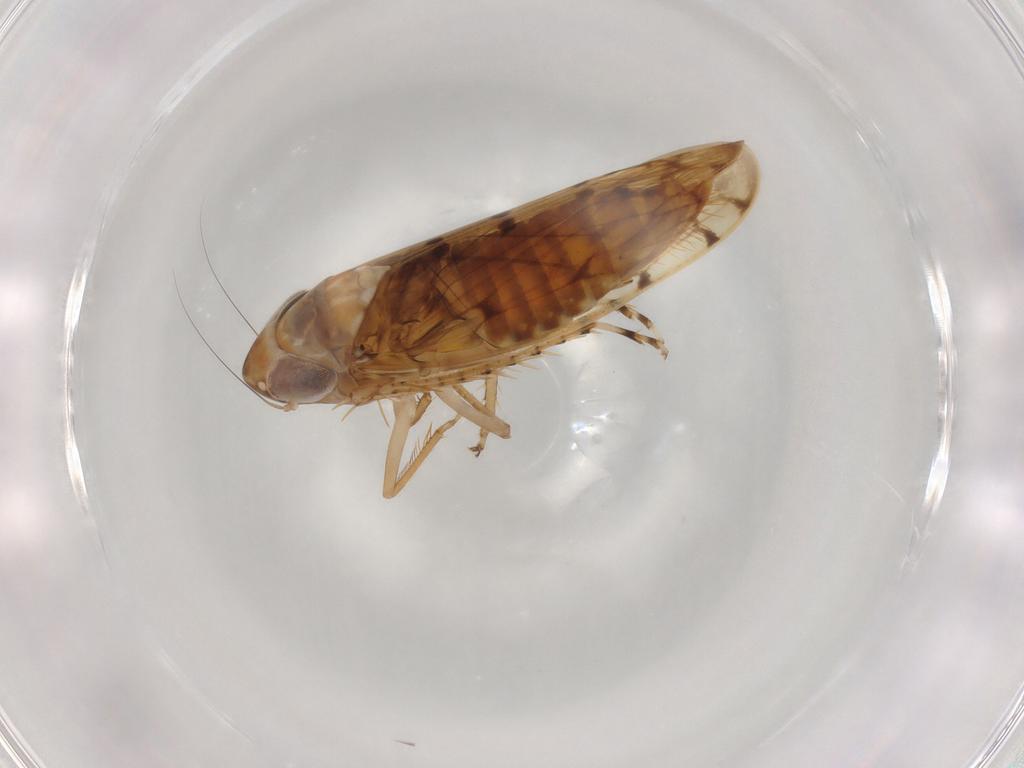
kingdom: Animalia
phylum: Arthropoda
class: Insecta
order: Hemiptera
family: Cicadellidae
